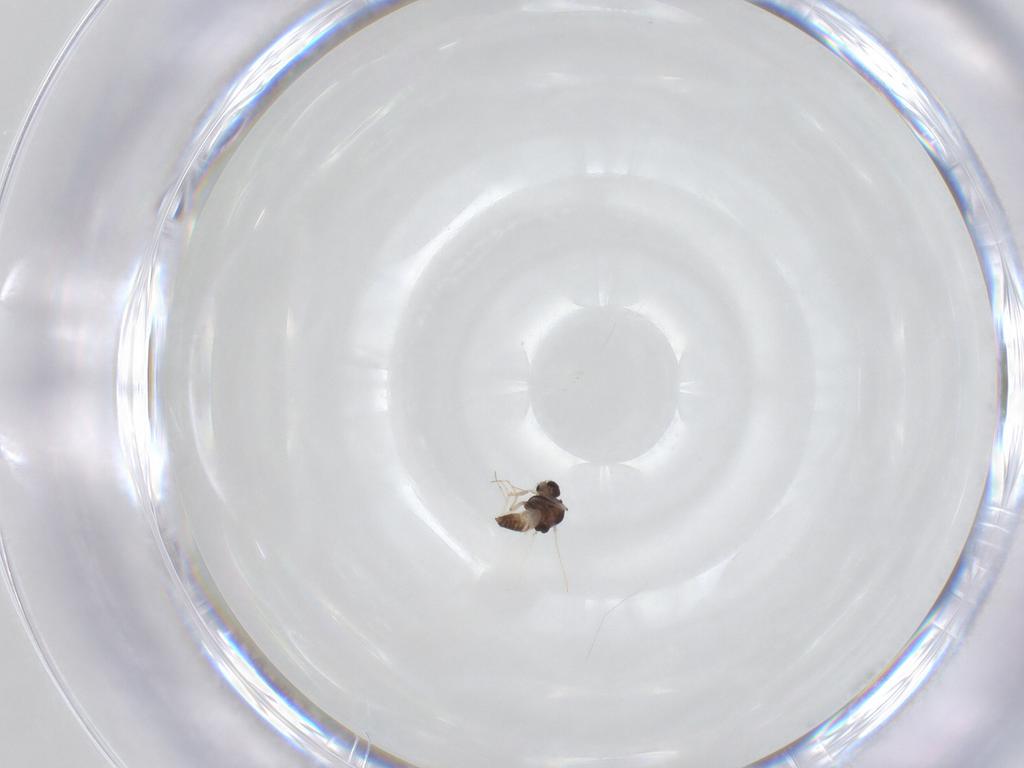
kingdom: Animalia
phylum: Arthropoda
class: Insecta
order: Diptera
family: Chironomidae
